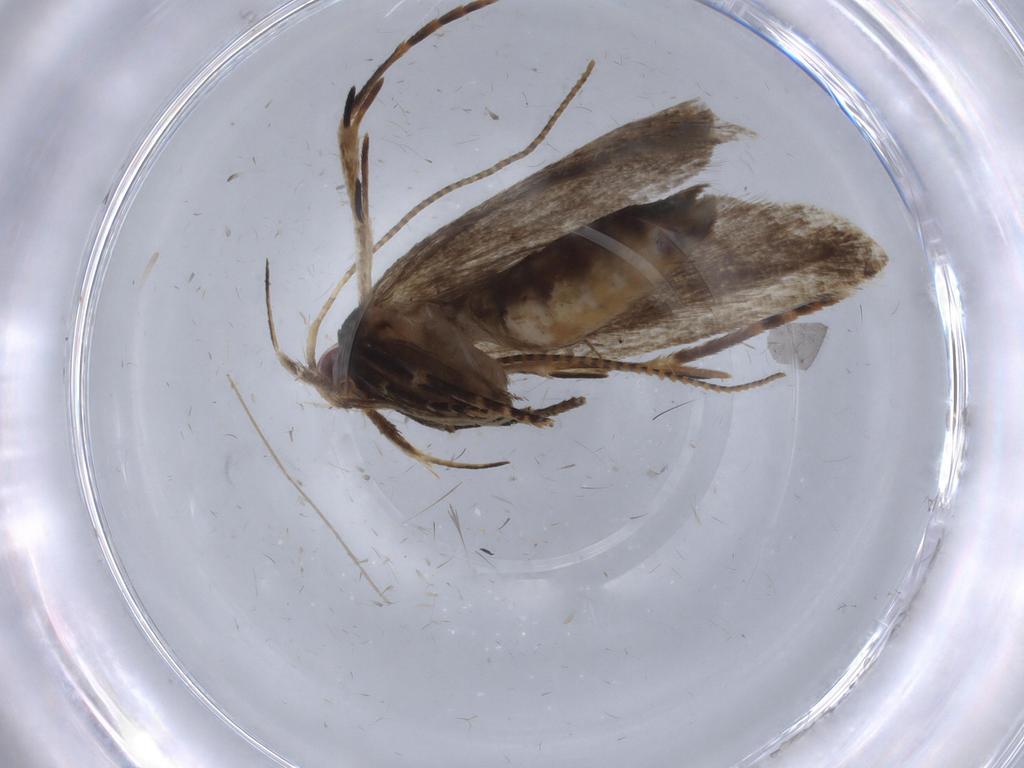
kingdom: Animalia
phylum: Arthropoda
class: Insecta
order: Lepidoptera
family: Gelechiidae
